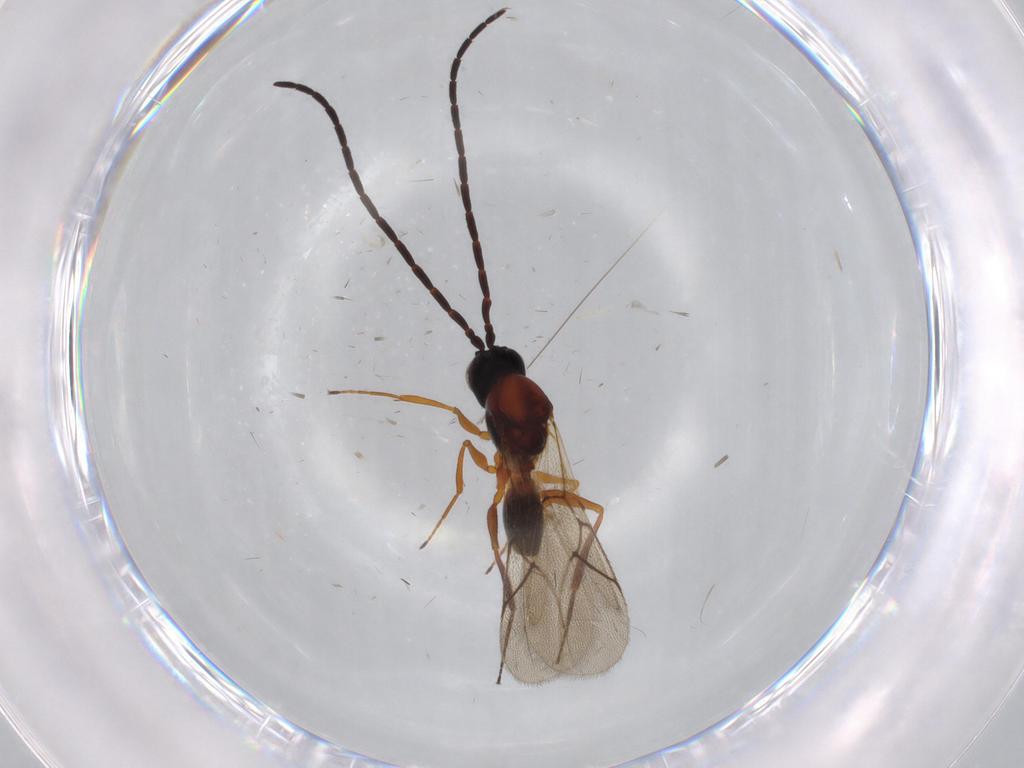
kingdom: Animalia
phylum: Arthropoda
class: Insecta
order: Hymenoptera
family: Figitidae
